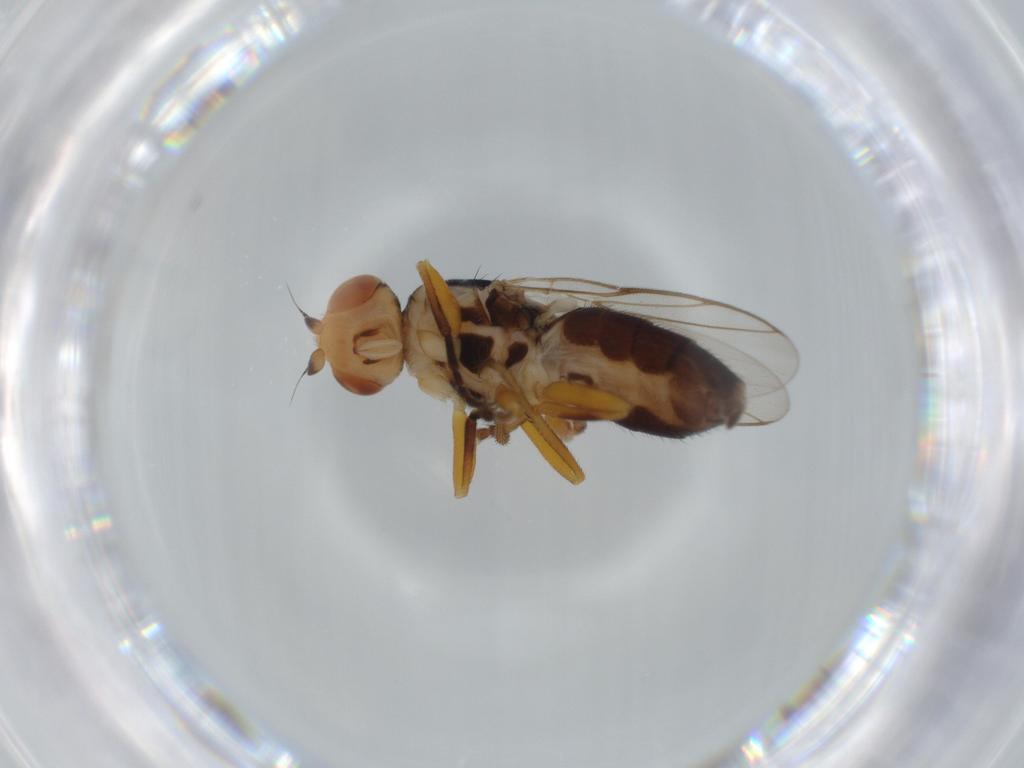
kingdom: Animalia
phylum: Arthropoda
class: Insecta
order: Diptera
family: Chloropidae
